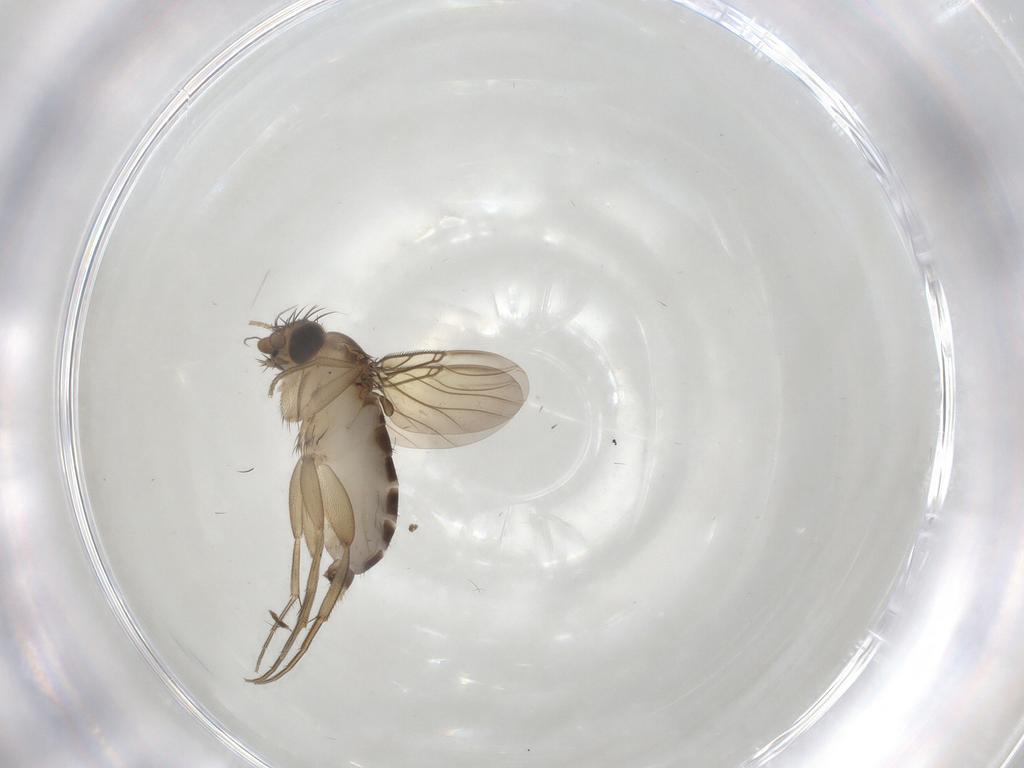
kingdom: Animalia
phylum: Arthropoda
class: Insecta
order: Diptera
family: Phoridae
